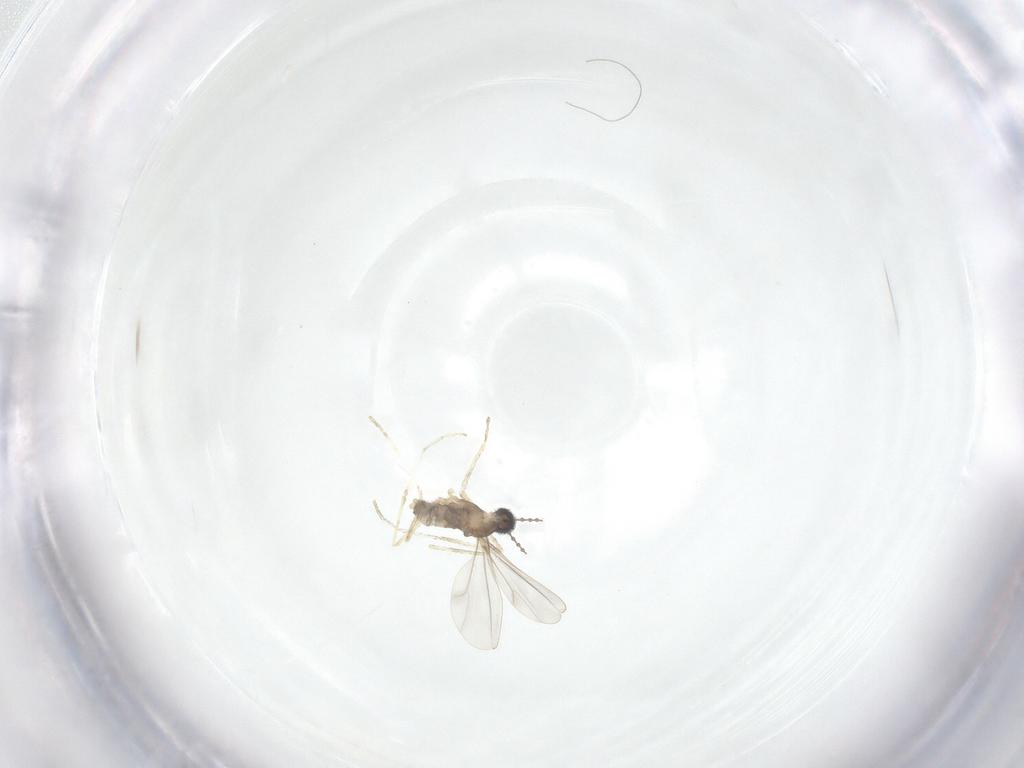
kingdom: Animalia
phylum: Arthropoda
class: Insecta
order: Diptera
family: Cecidomyiidae
